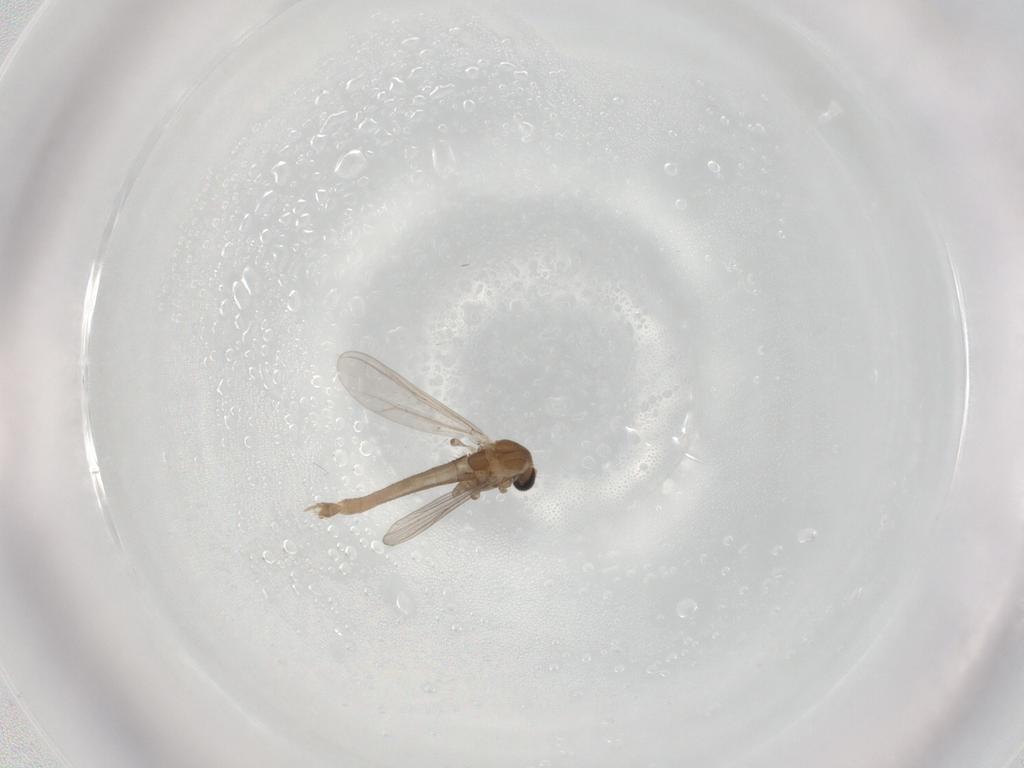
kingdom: Animalia
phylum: Arthropoda
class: Insecta
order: Diptera
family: Chironomidae
